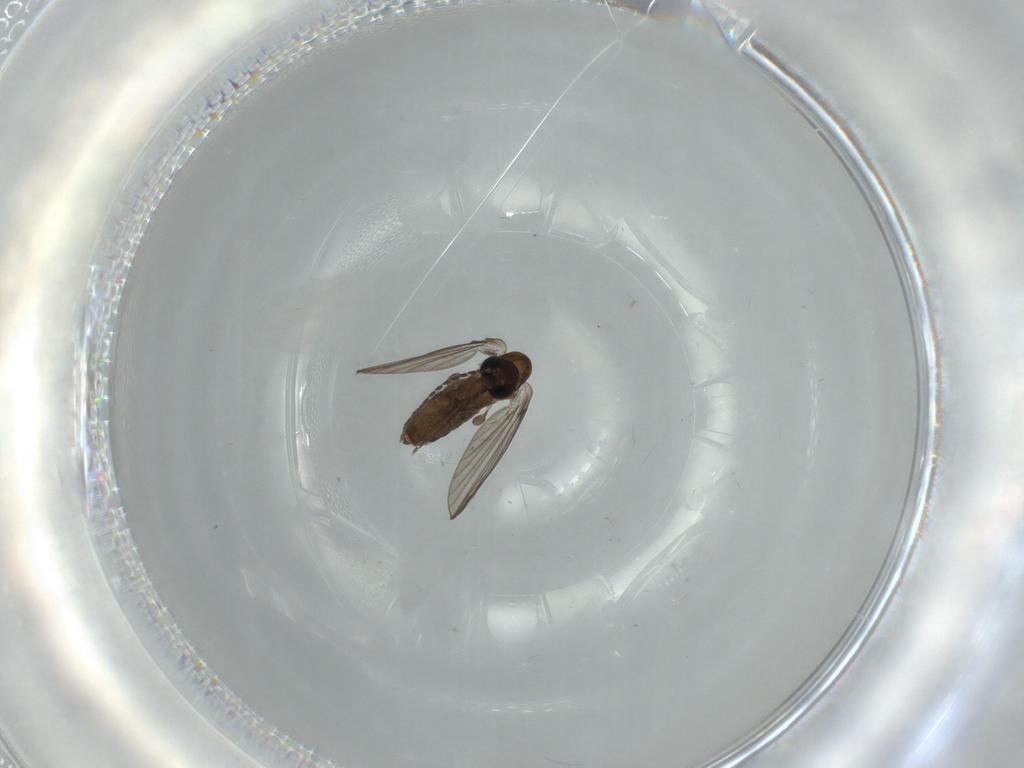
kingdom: Animalia
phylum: Arthropoda
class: Insecta
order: Diptera
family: Psychodidae
